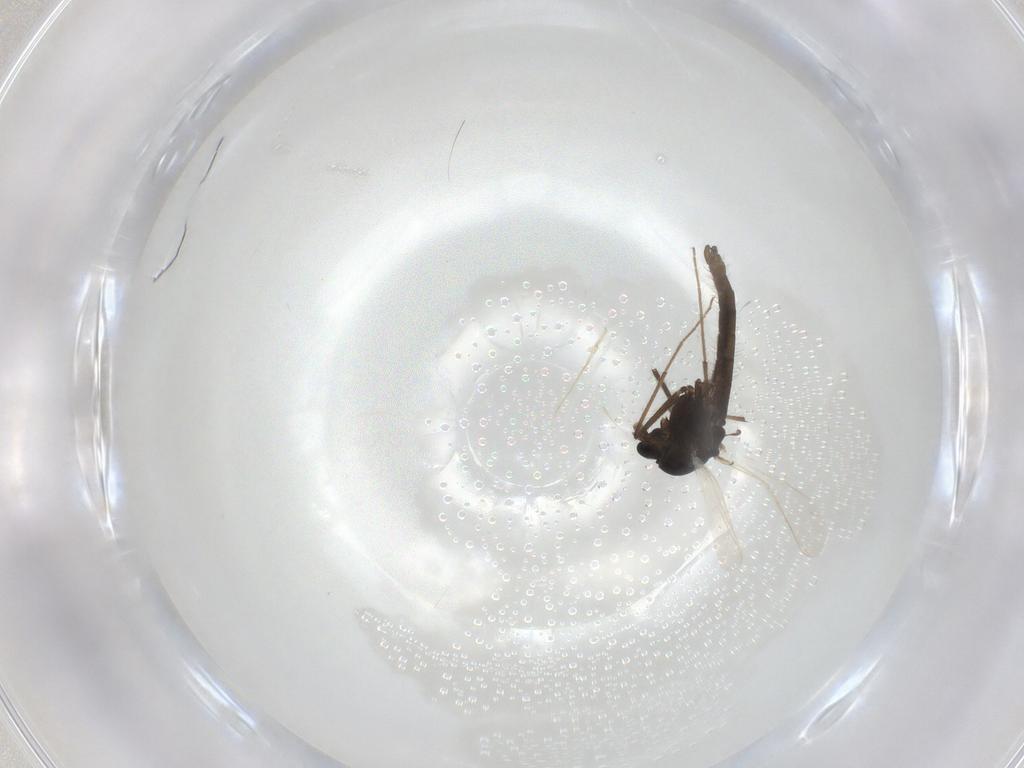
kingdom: Animalia
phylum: Arthropoda
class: Insecta
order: Diptera
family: Chironomidae
